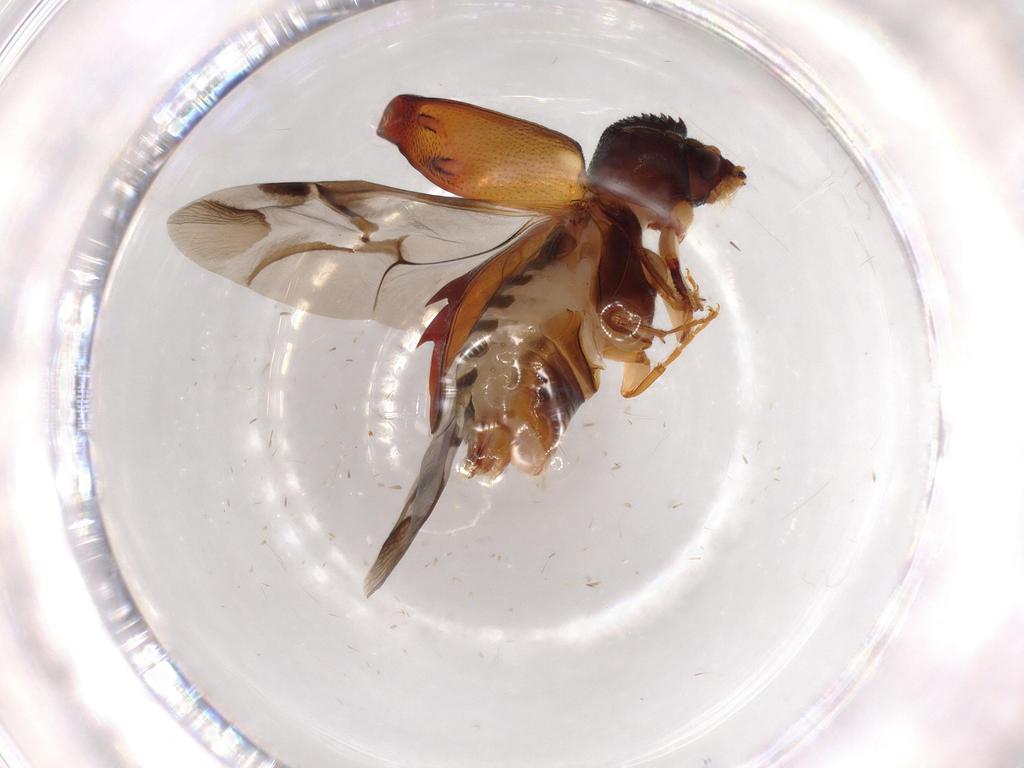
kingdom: Animalia
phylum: Arthropoda
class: Insecta
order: Coleoptera
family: Bostrichidae
